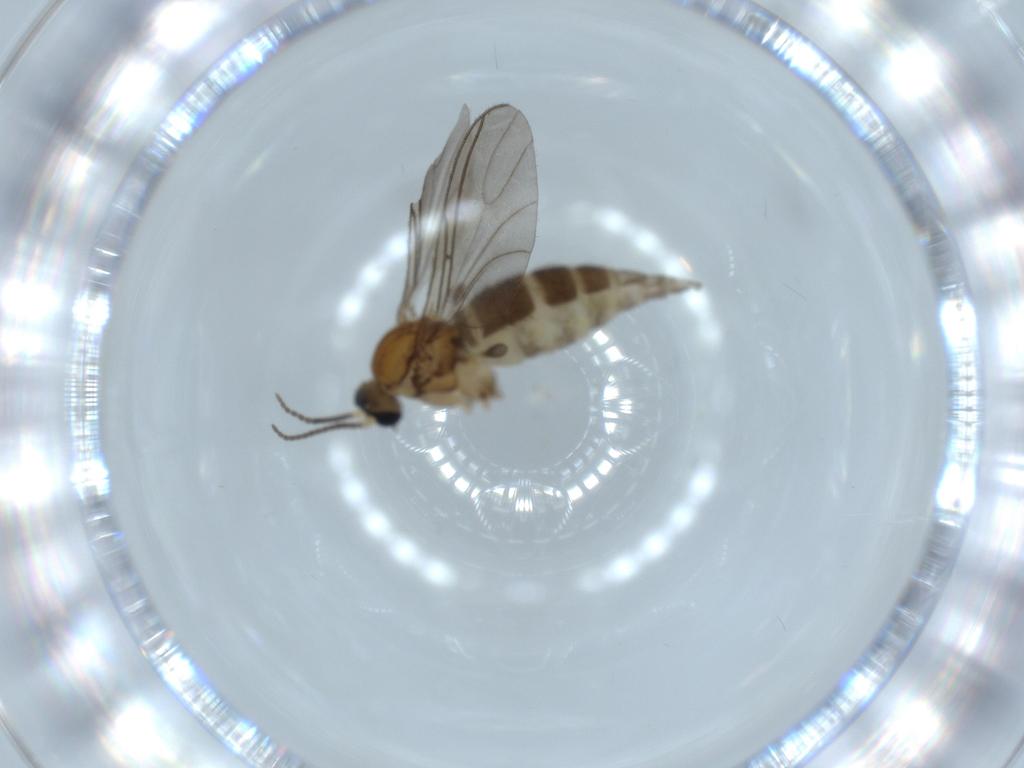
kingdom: Animalia
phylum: Arthropoda
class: Insecta
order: Diptera
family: Sciaridae
